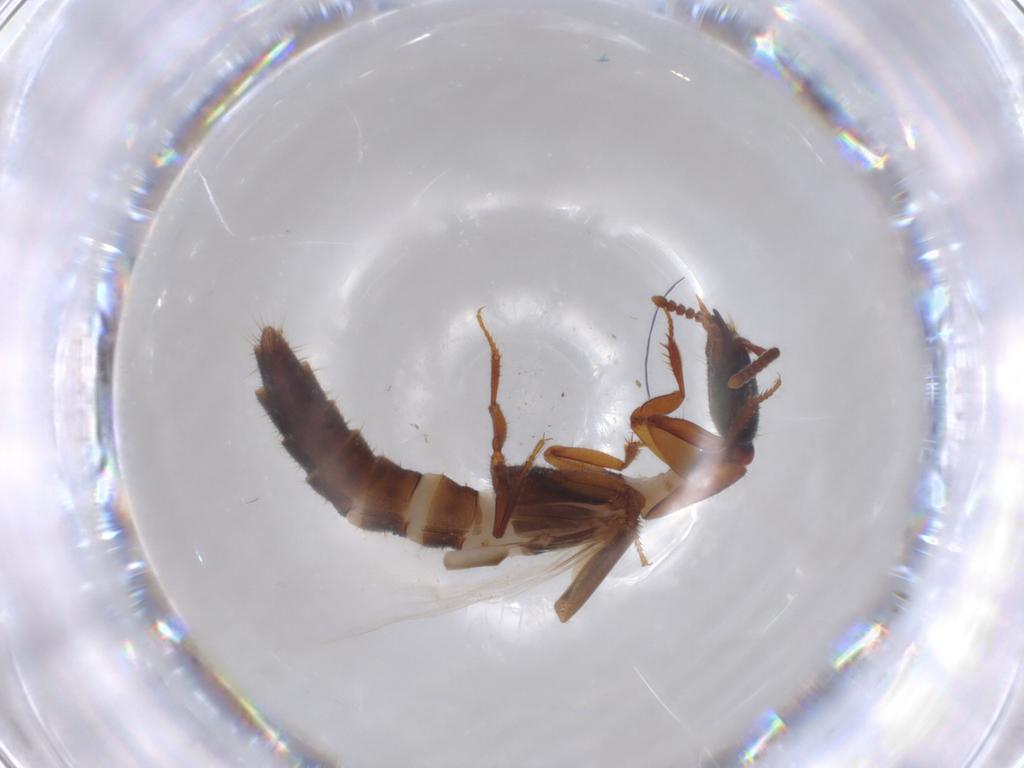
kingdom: Animalia
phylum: Arthropoda
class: Insecta
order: Coleoptera
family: Staphylinidae
